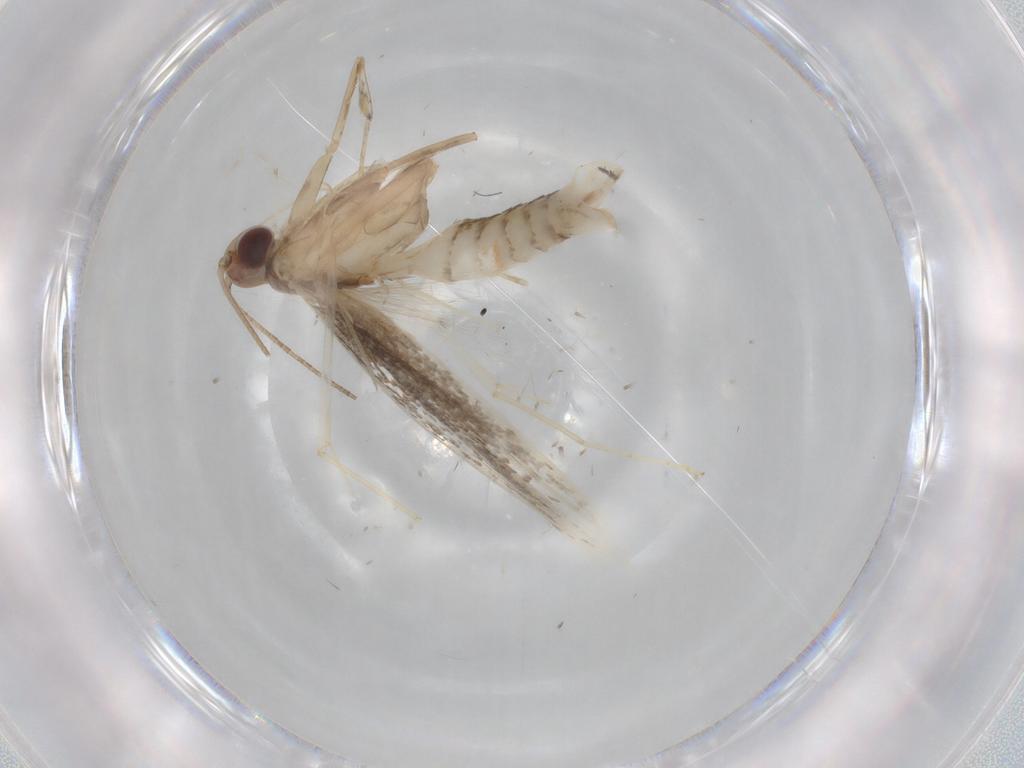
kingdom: Animalia
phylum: Arthropoda
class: Insecta
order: Lepidoptera
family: Gracillariidae
